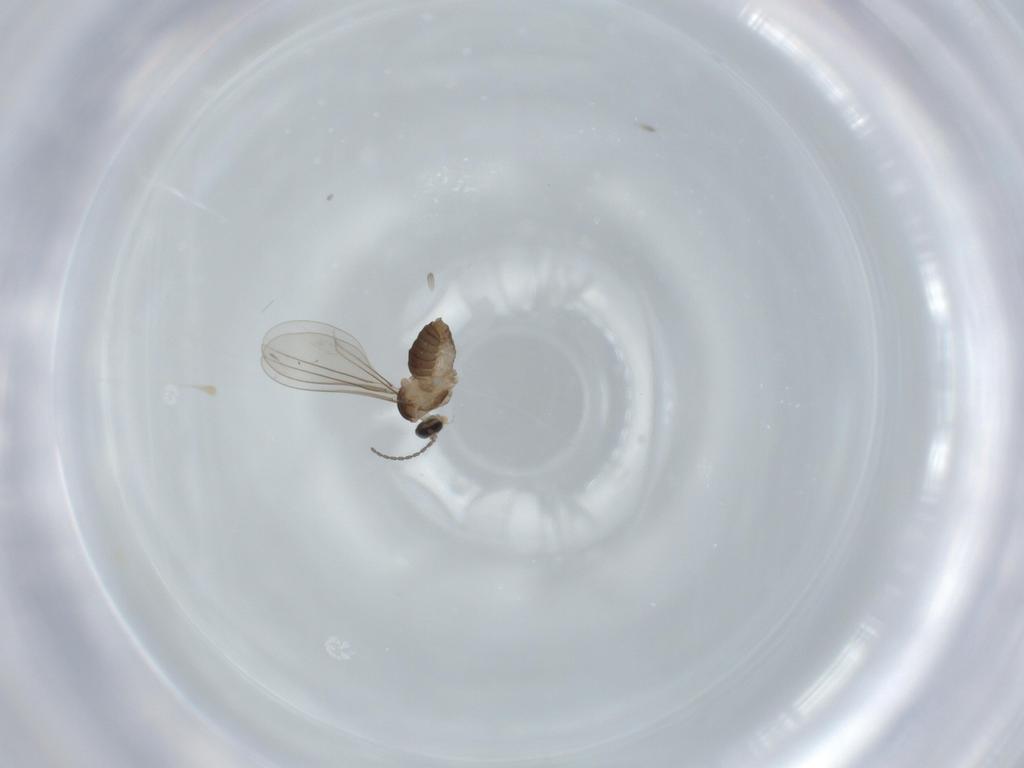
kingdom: Animalia
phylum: Arthropoda
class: Insecta
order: Diptera
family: Cecidomyiidae
